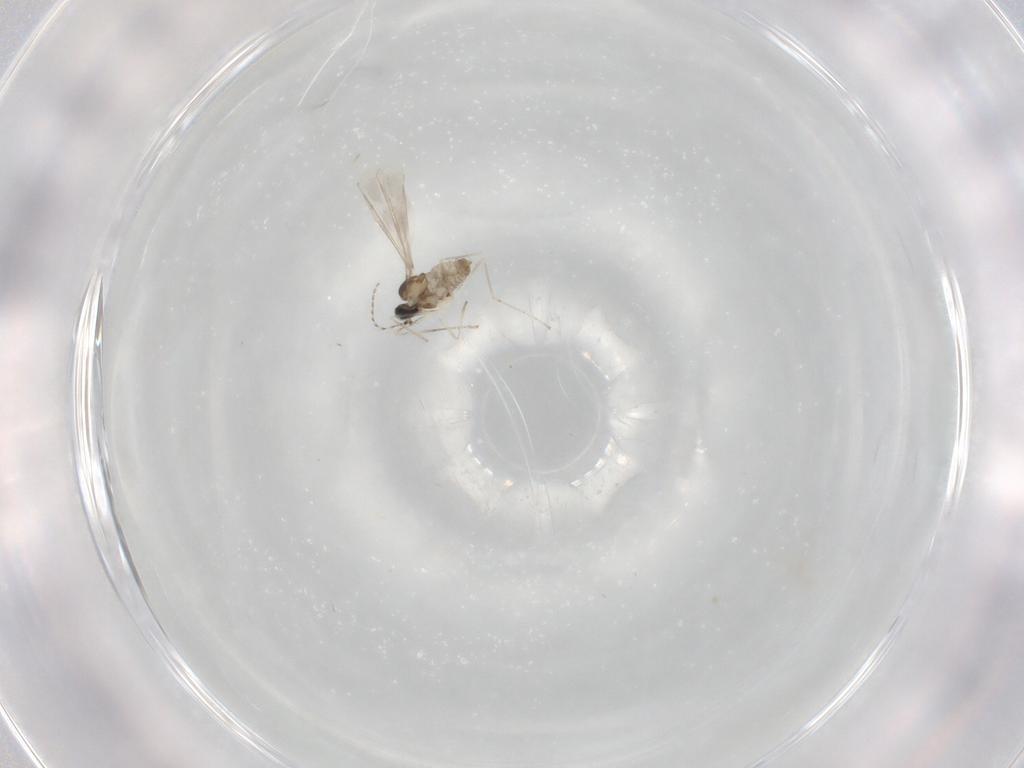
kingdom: Animalia
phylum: Arthropoda
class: Insecta
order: Diptera
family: Cecidomyiidae
